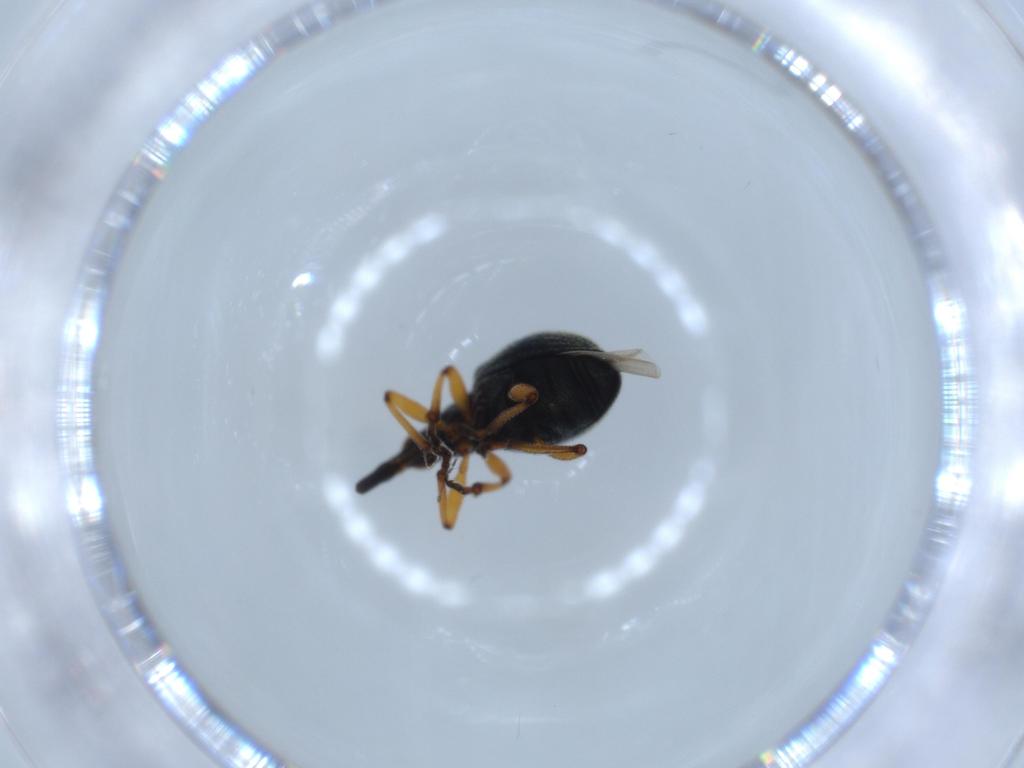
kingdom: Animalia
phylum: Arthropoda
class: Insecta
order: Coleoptera
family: Brentidae
